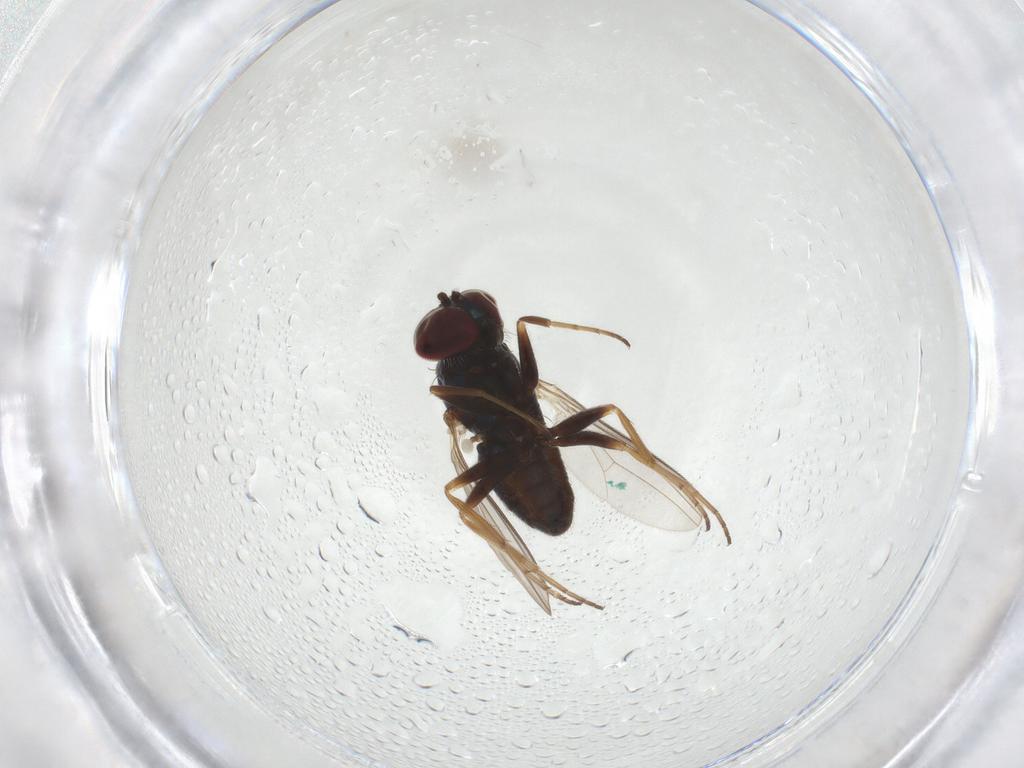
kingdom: Animalia
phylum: Arthropoda
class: Insecta
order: Diptera
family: Dolichopodidae
